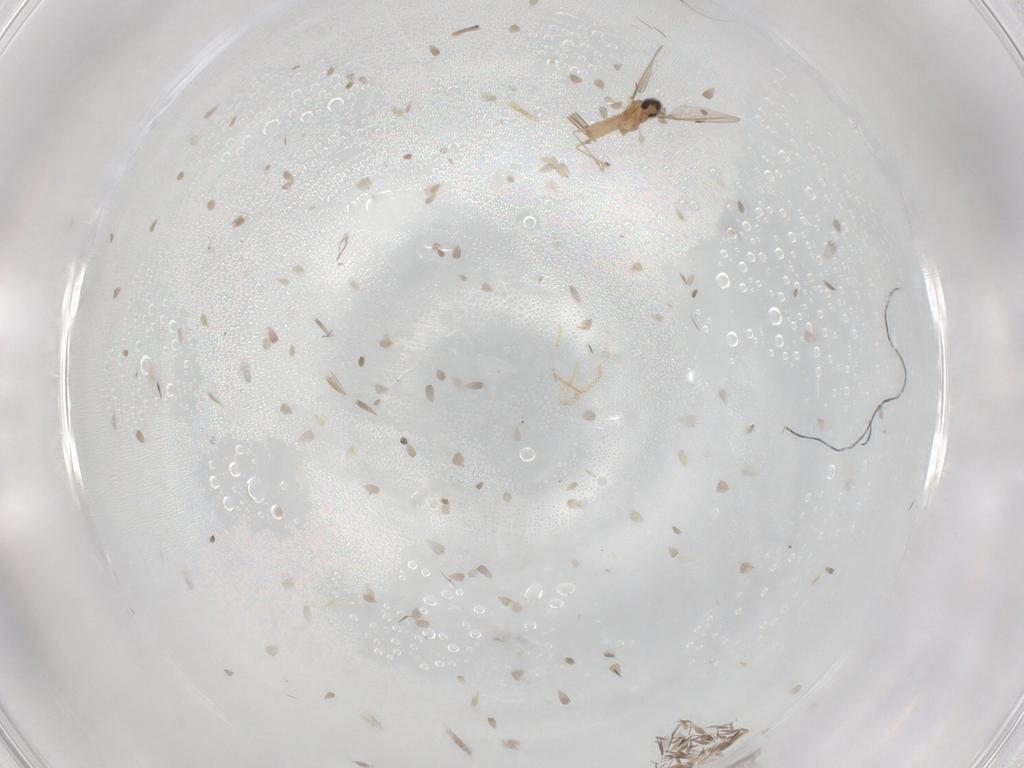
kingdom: Animalia
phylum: Arthropoda
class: Insecta
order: Diptera
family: Cecidomyiidae
